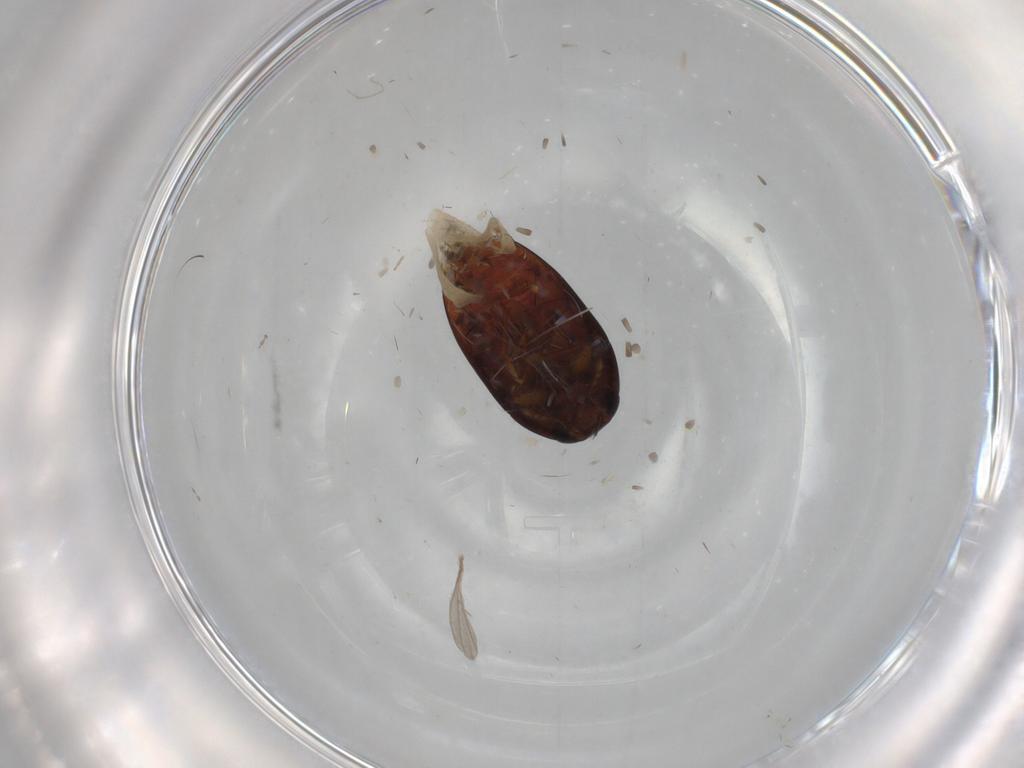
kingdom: Animalia
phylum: Arthropoda
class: Insecta
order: Coleoptera
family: Phalacridae
